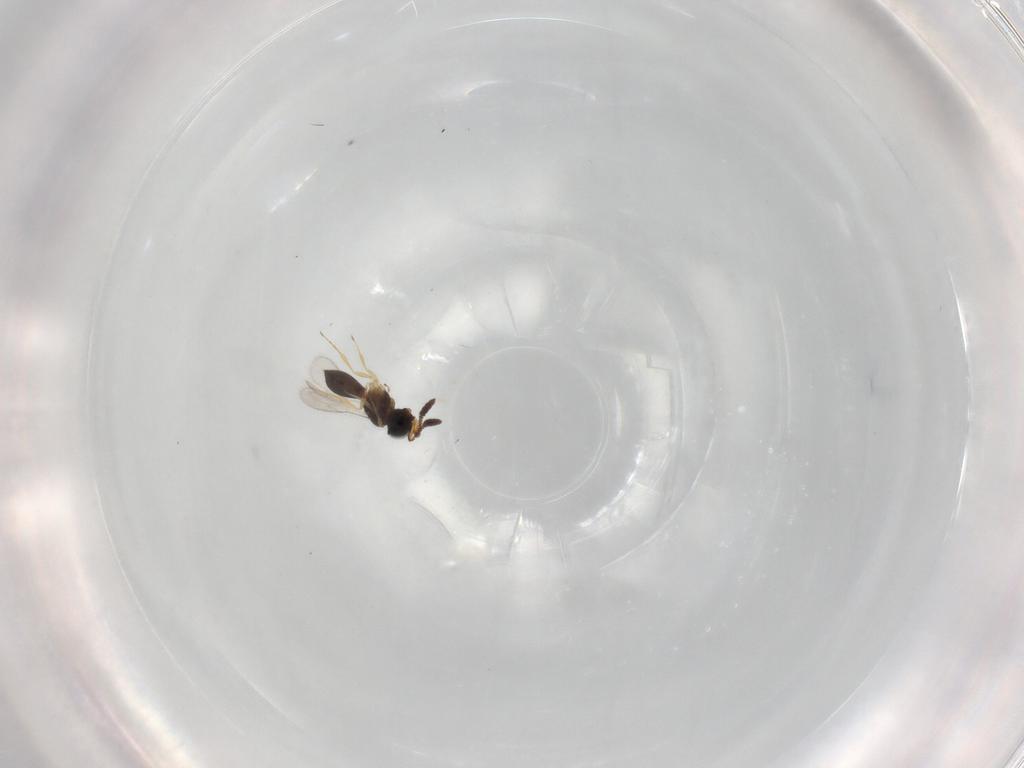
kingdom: Animalia
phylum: Arthropoda
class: Insecta
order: Hymenoptera
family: Scelionidae
